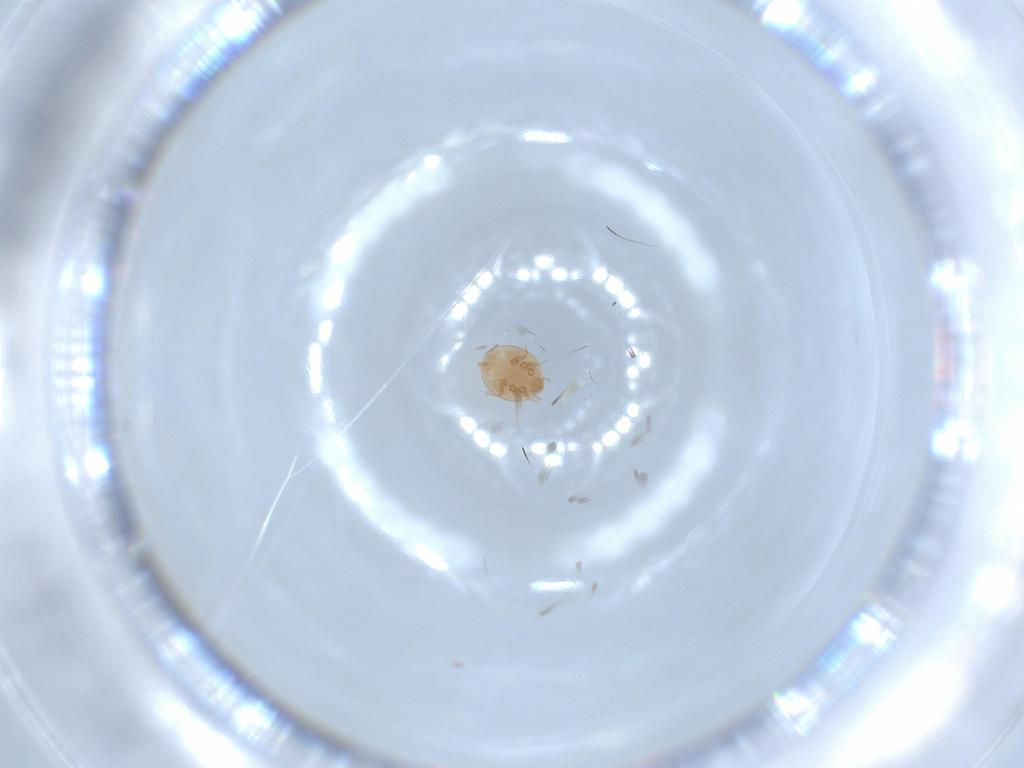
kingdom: Animalia
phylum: Arthropoda
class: Arachnida
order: Mesostigmata
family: Trematuridae
